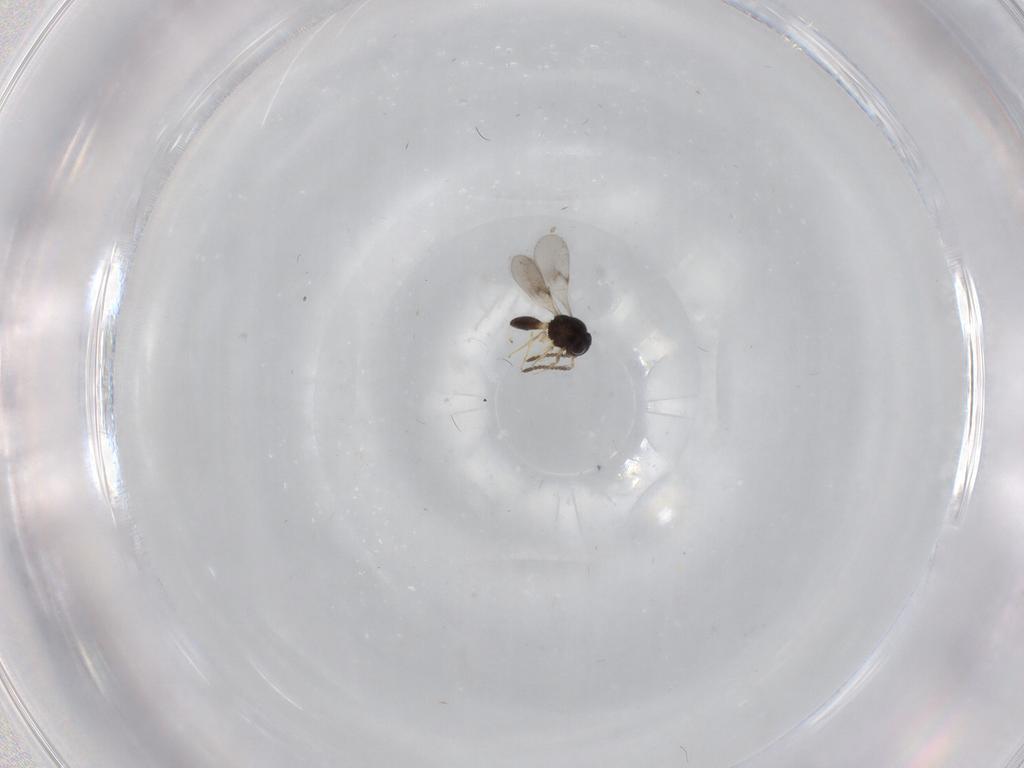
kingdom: Animalia
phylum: Arthropoda
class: Insecta
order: Hymenoptera
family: Scelionidae
